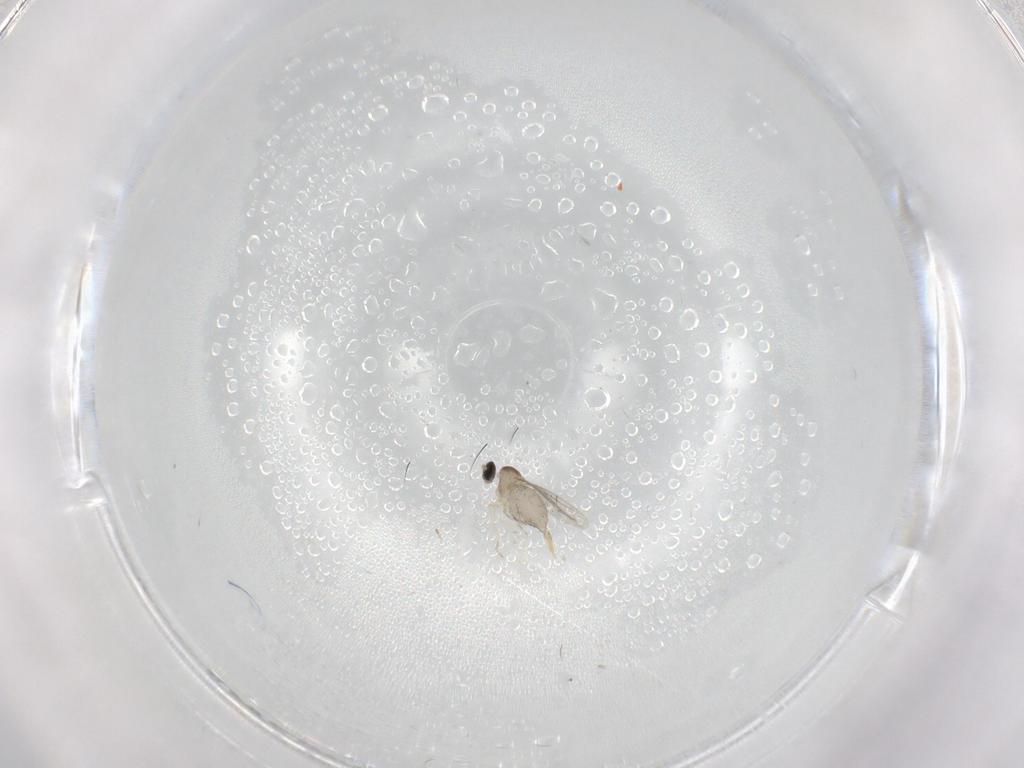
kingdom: Animalia
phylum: Arthropoda
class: Insecta
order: Diptera
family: Cecidomyiidae
